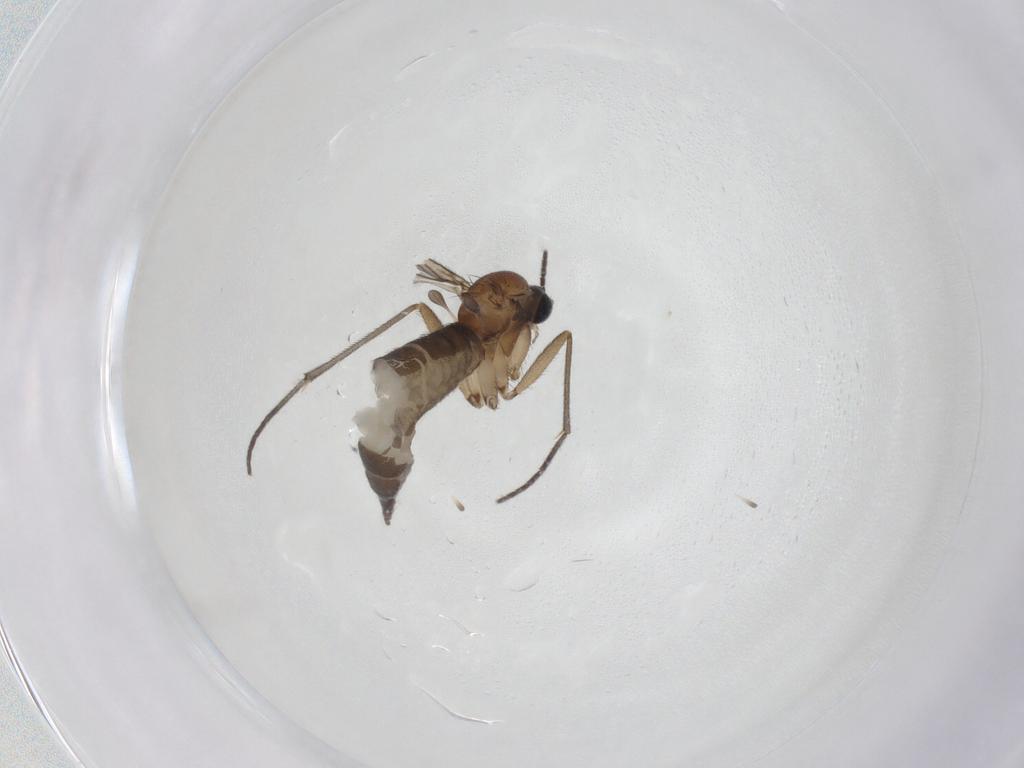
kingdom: Animalia
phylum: Arthropoda
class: Insecta
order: Diptera
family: Sciaridae
